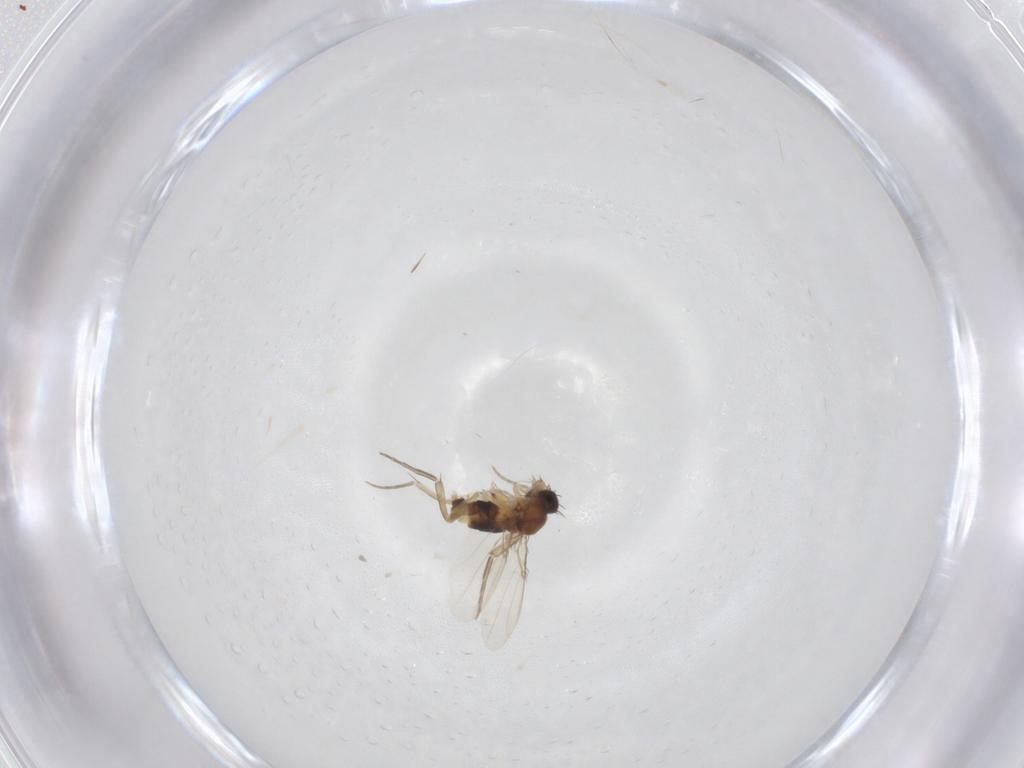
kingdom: Animalia
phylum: Arthropoda
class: Insecta
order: Diptera
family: Phoridae
